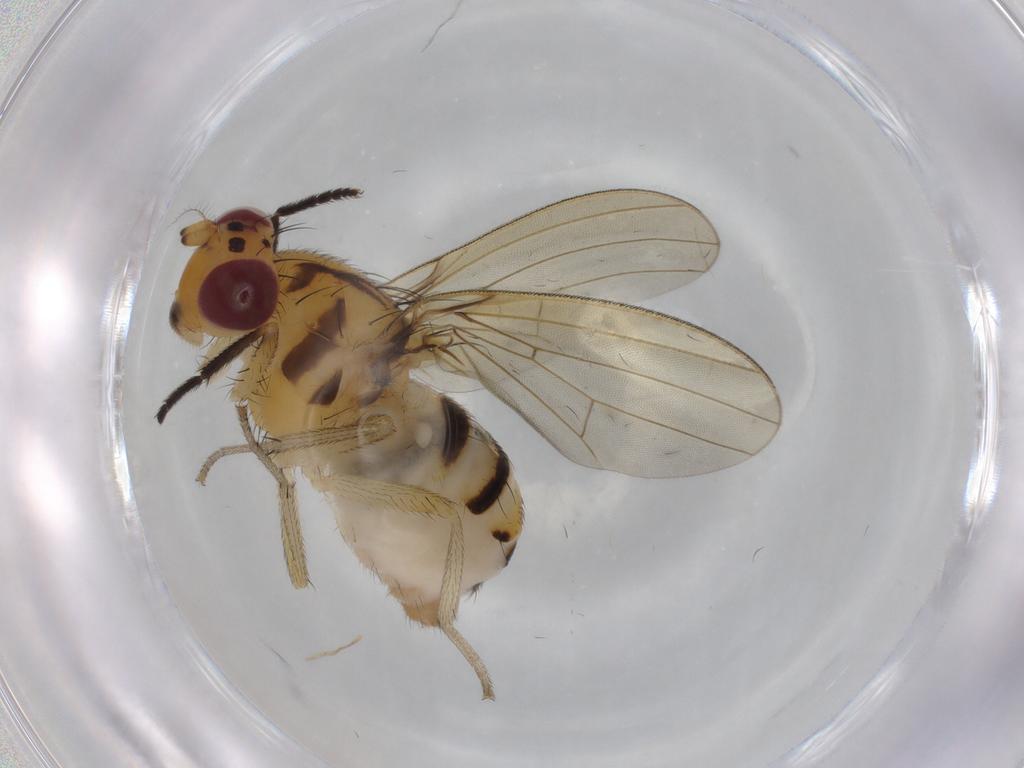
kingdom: Animalia
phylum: Arthropoda
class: Insecta
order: Diptera
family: Lauxaniidae
